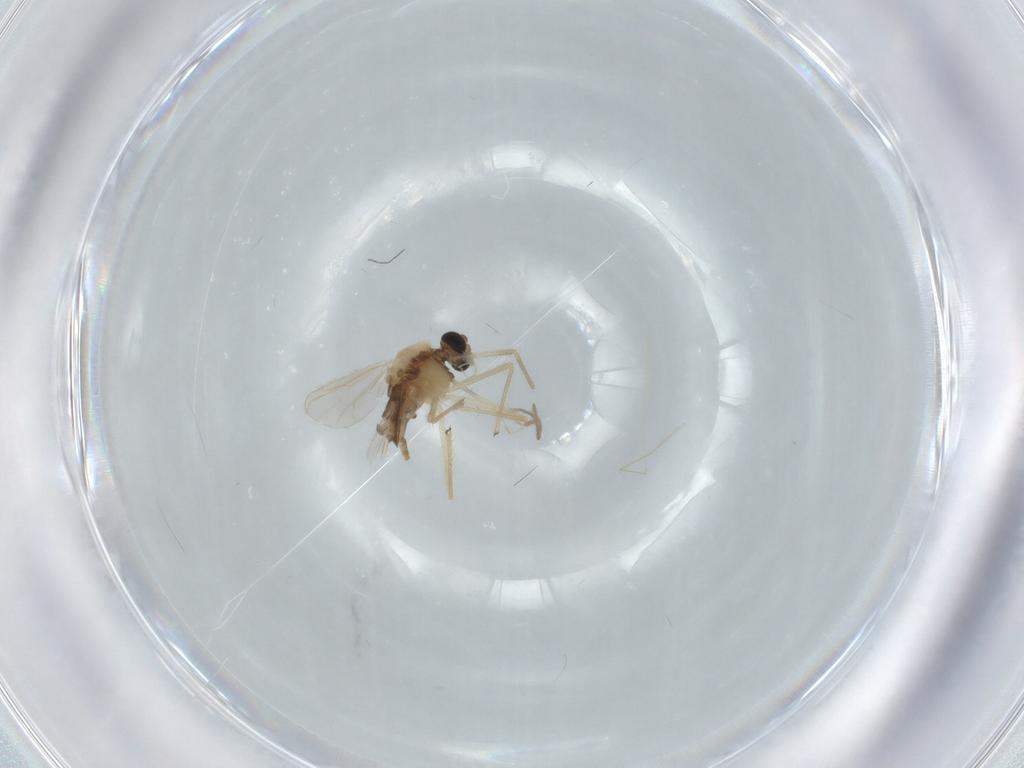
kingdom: Animalia
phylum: Arthropoda
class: Insecta
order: Diptera
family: Chironomidae
